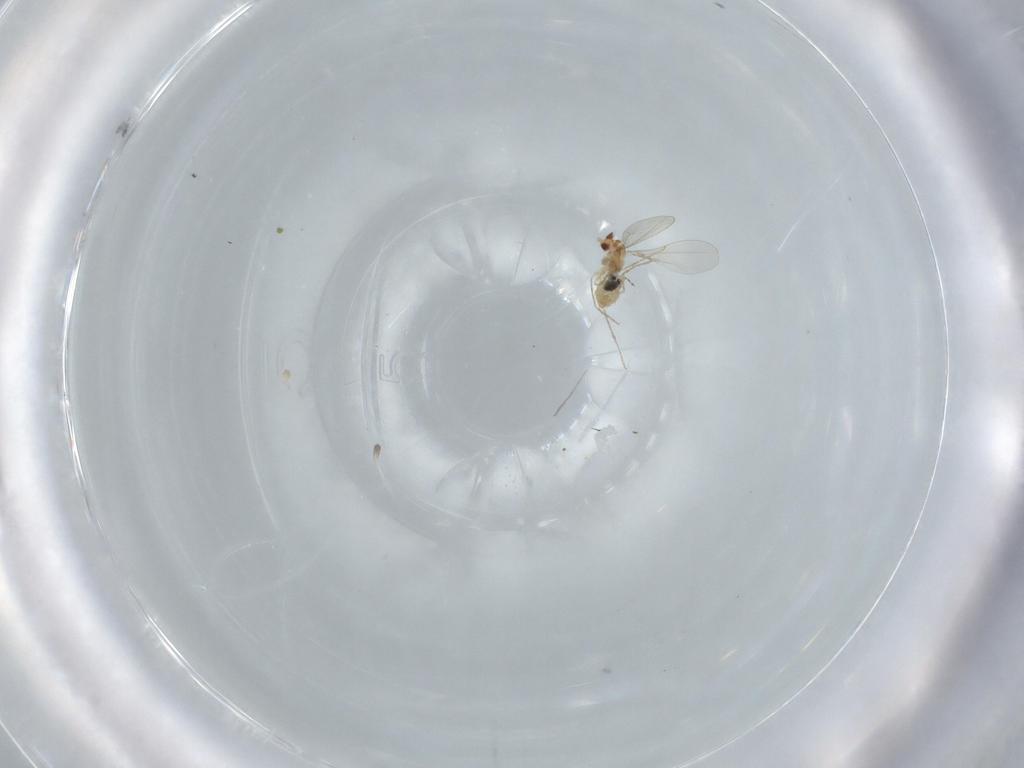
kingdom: Animalia
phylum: Arthropoda
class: Insecta
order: Diptera
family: Cecidomyiidae
